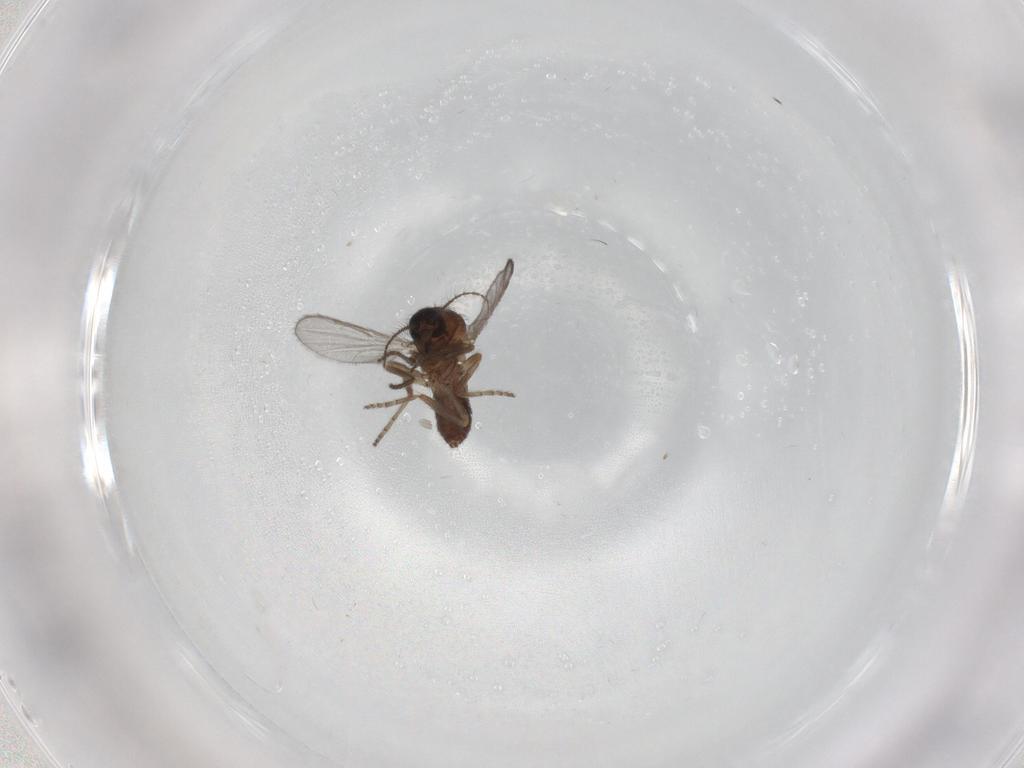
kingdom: Animalia
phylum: Arthropoda
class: Insecta
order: Diptera
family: Ceratopogonidae
